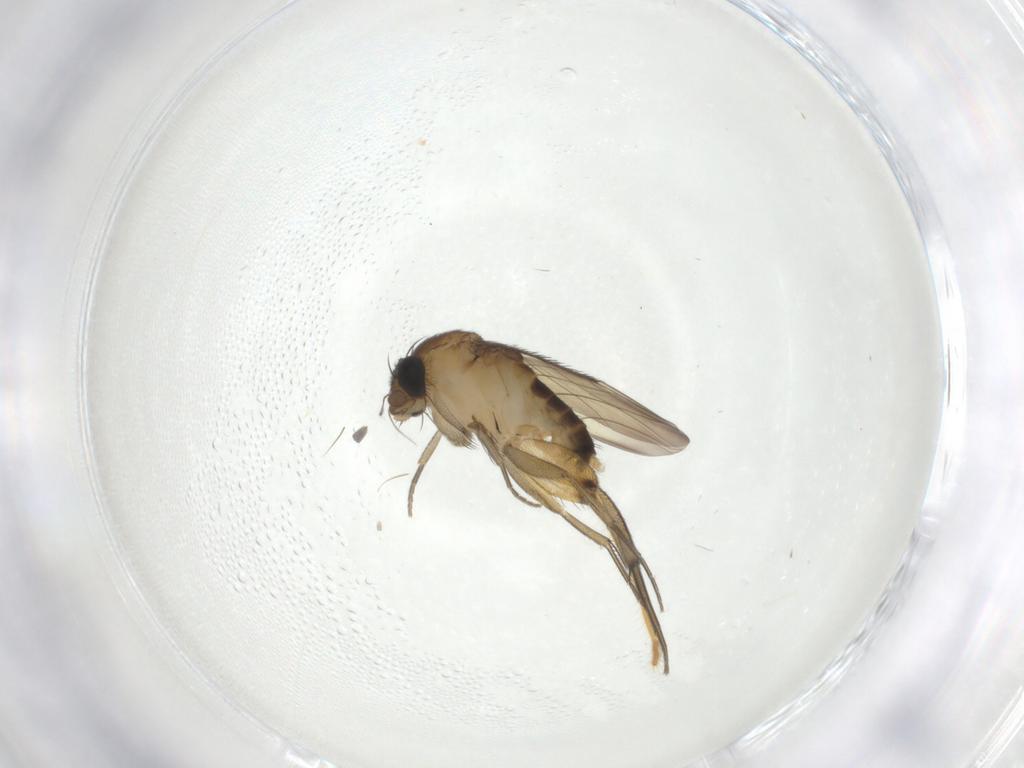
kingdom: Animalia
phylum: Arthropoda
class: Insecta
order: Diptera
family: Phoridae
